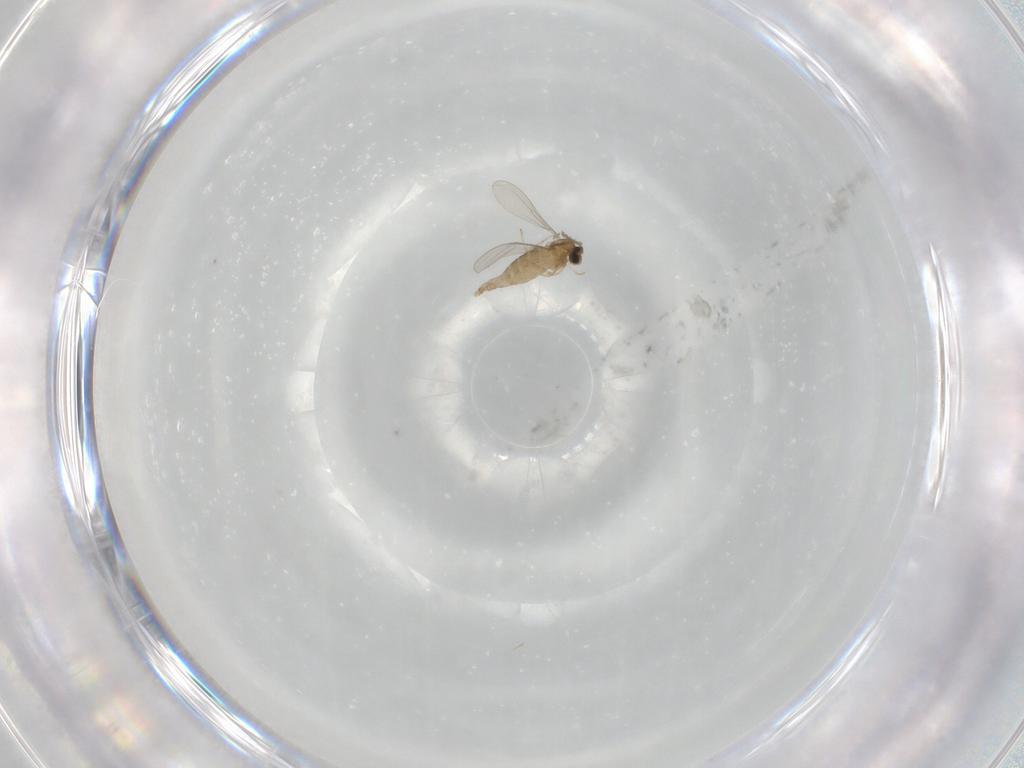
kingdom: Animalia
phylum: Arthropoda
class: Insecta
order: Diptera
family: Cecidomyiidae
